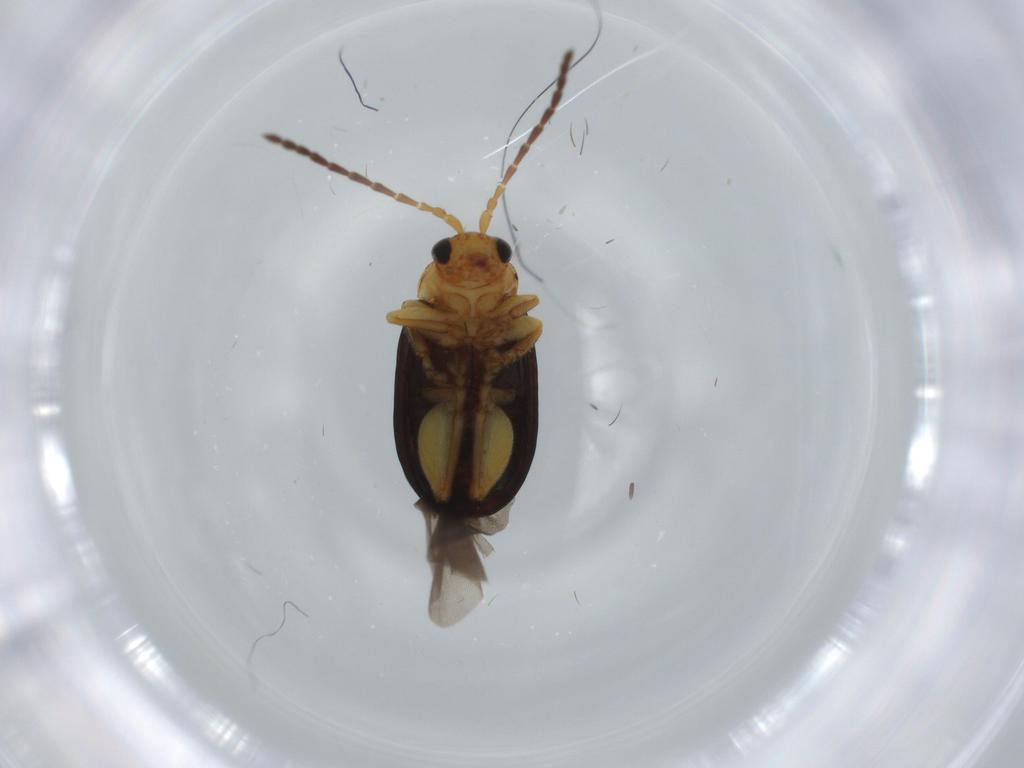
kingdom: Animalia
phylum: Arthropoda
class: Insecta
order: Coleoptera
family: Chrysomelidae
